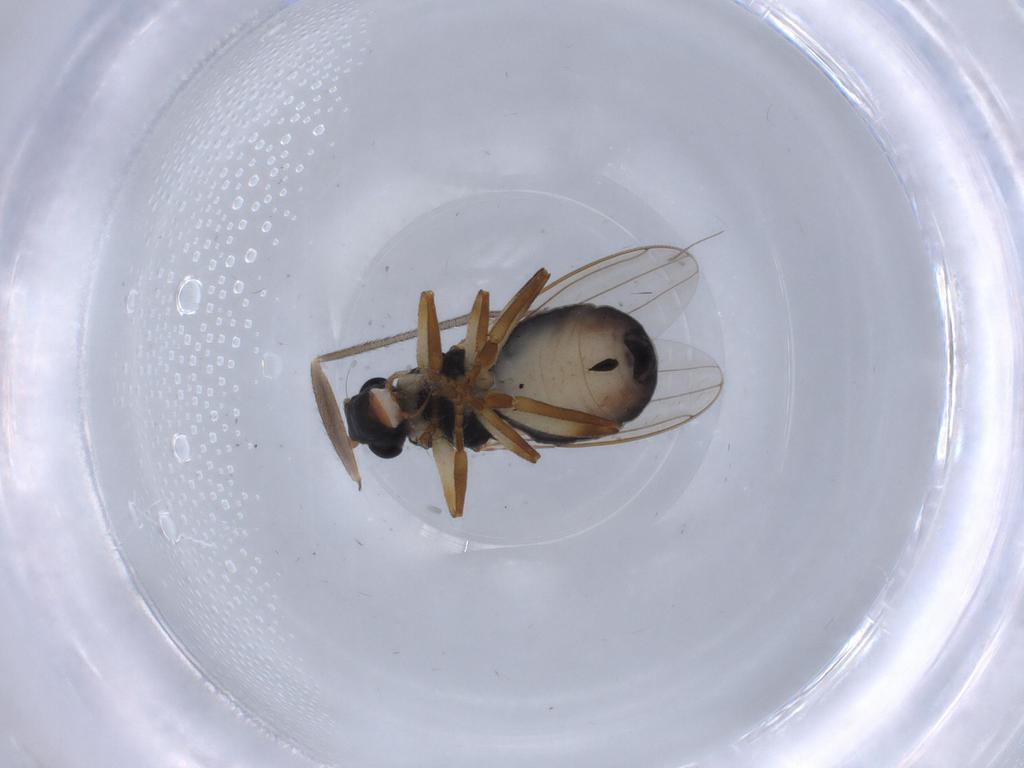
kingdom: Animalia
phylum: Arthropoda
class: Insecta
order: Diptera
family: Sphaeroceridae
